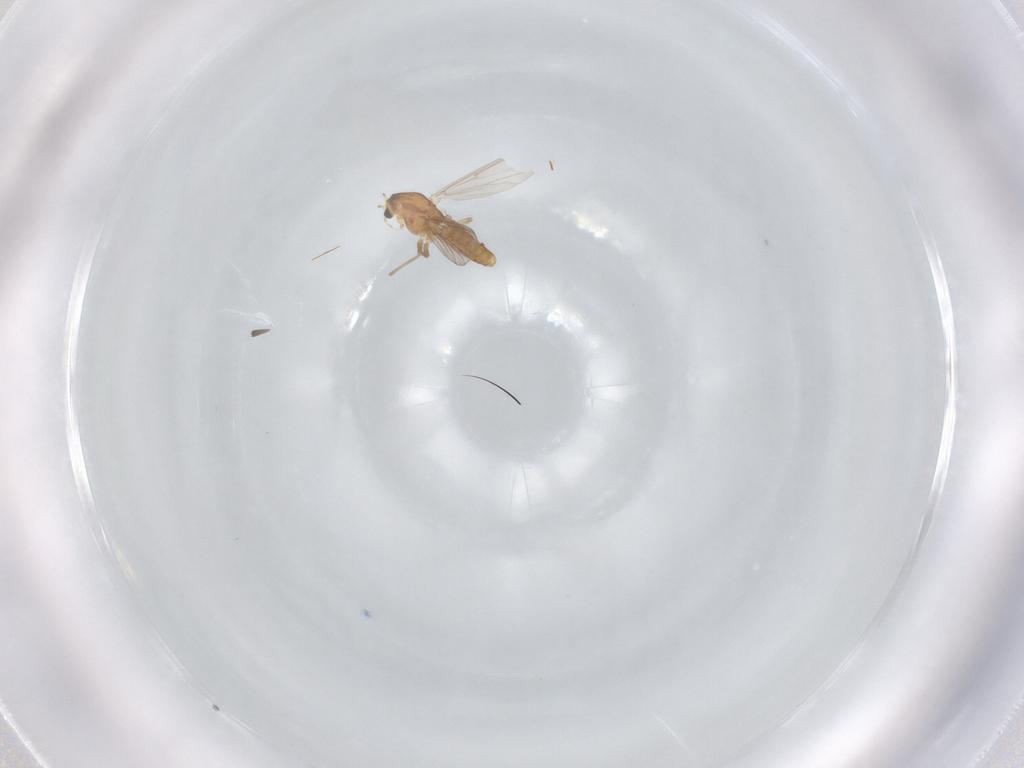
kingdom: Animalia
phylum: Arthropoda
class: Insecta
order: Diptera
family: Chironomidae
